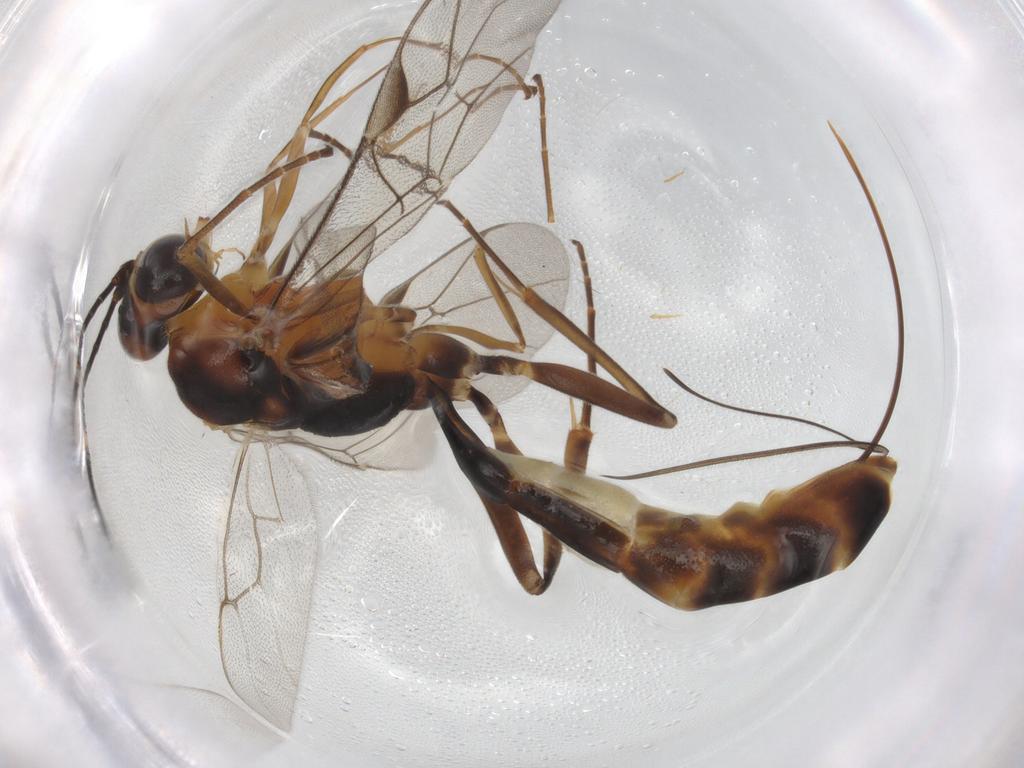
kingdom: Animalia
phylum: Arthropoda
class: Insecta
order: Hymenoptera
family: Ichneumonidae
